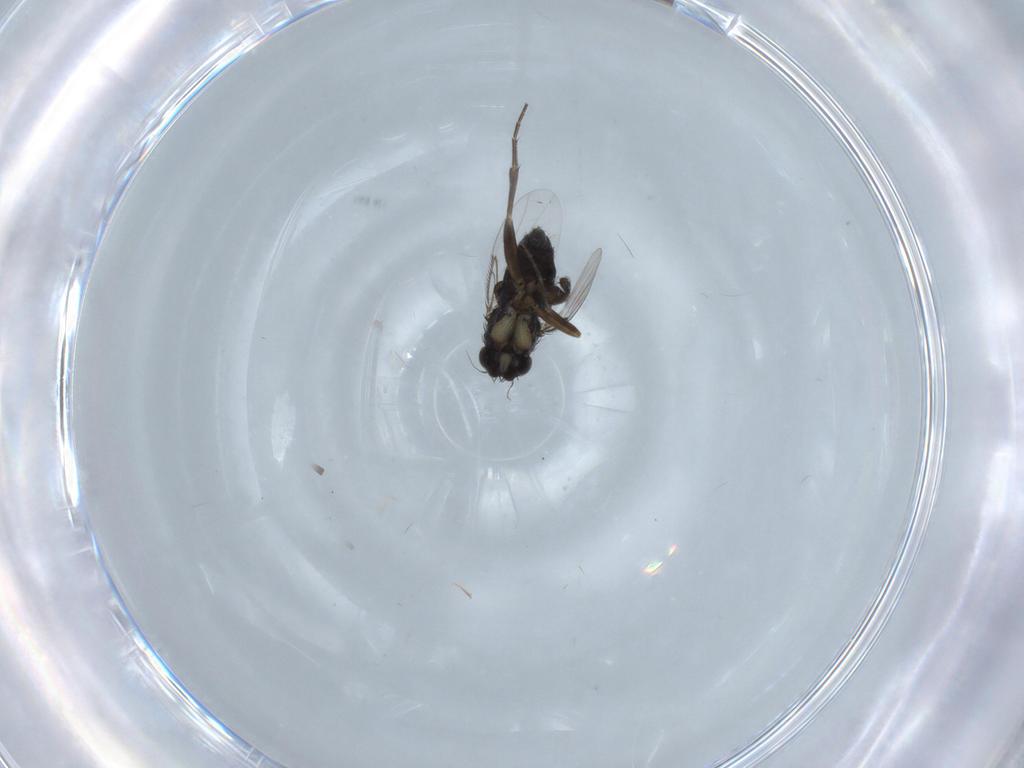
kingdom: Animalia
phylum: Arthropoda
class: Insecta
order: Diptera
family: Phoridae
